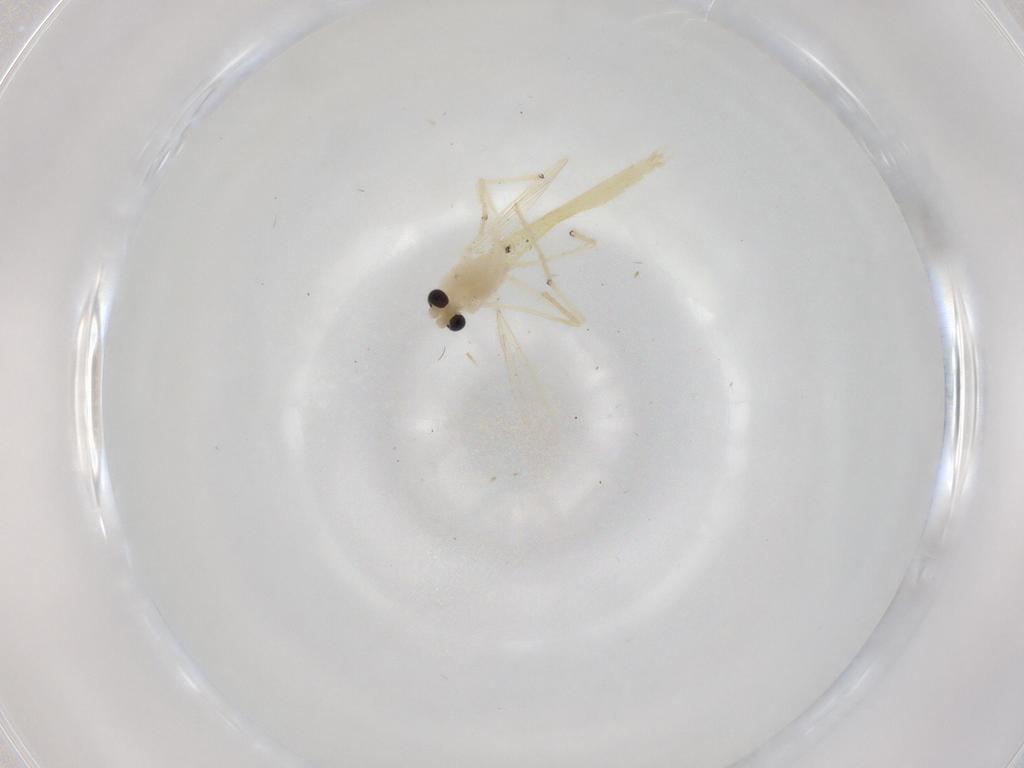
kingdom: Animalia
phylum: Arthropoda
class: Insecta
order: Diptera
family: Chironomidae
